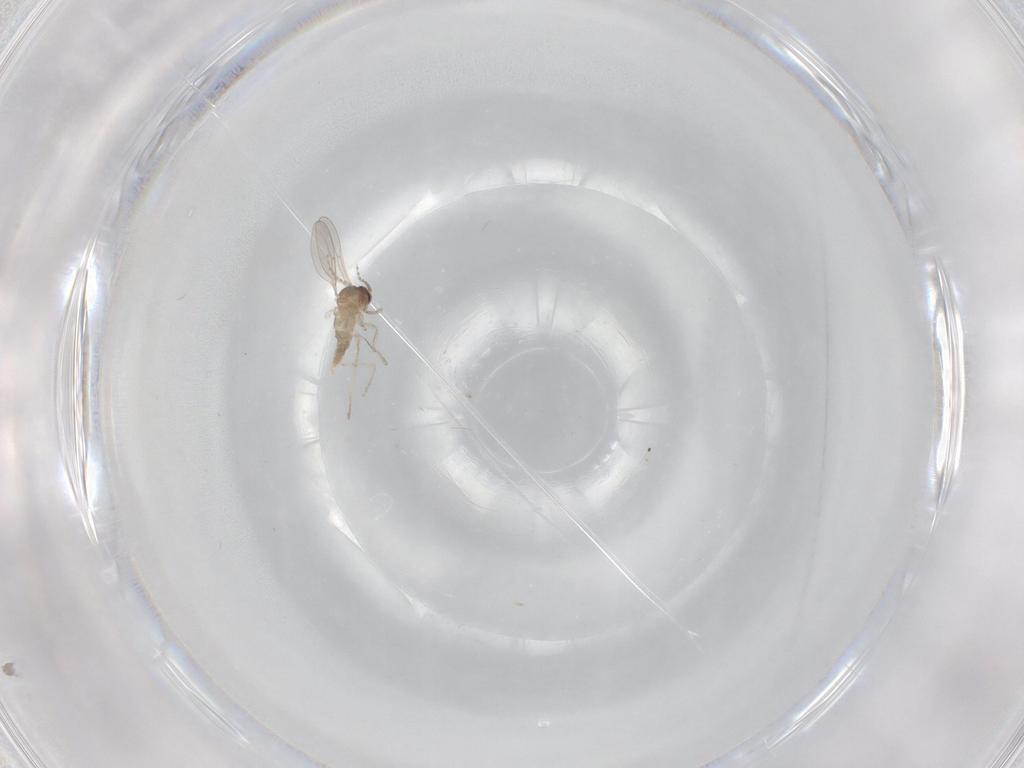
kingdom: Animalia
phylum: Arthropoda
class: Insecta
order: Diptera
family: Cecidomyiidae
